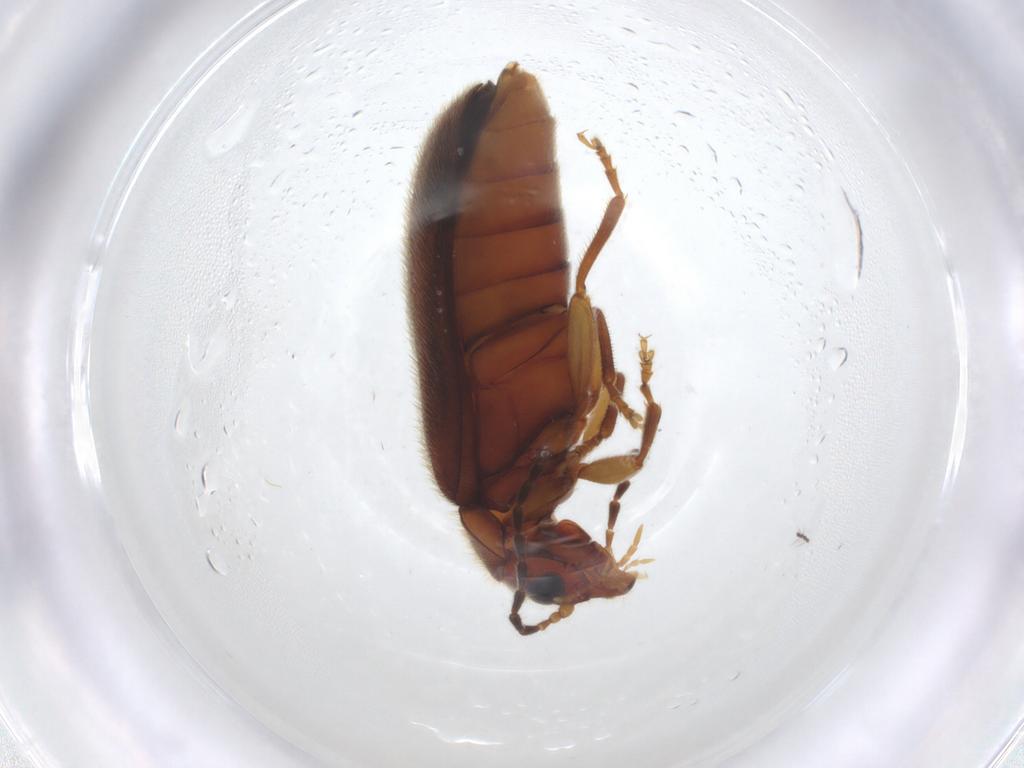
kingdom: Animalia
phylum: Arthropoda
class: Insecta
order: Coleoptera
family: Scirtidae
